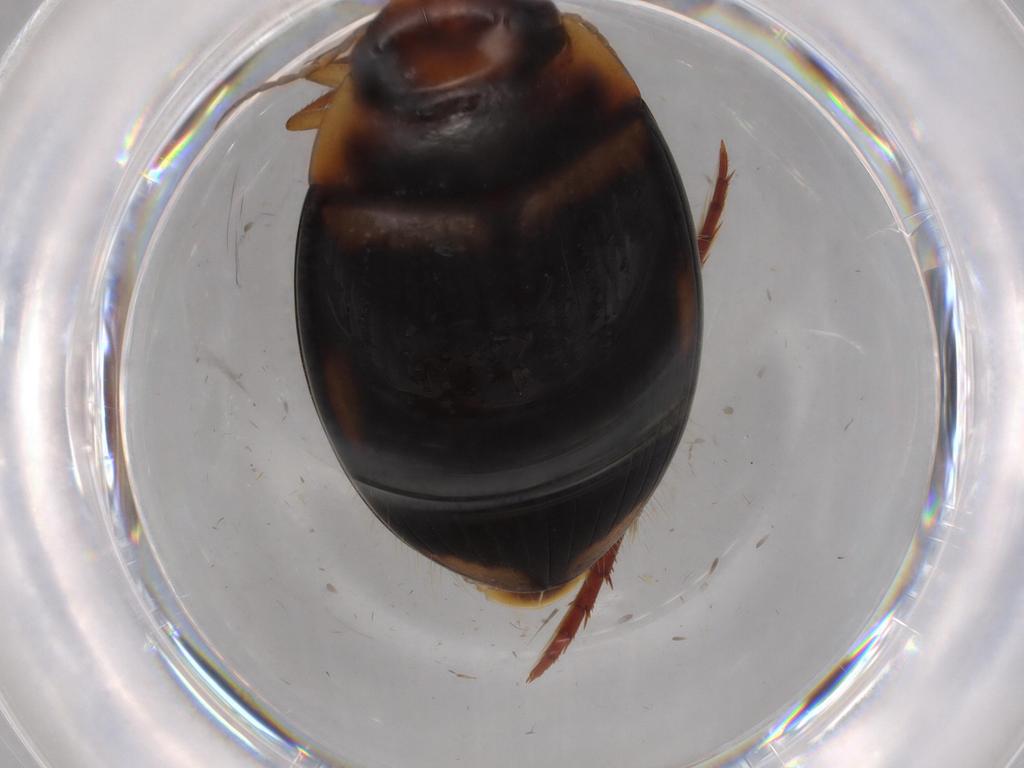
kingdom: Animalia
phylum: Arthropoda
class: Insecta
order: Coleoptera
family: Dytiscidae
